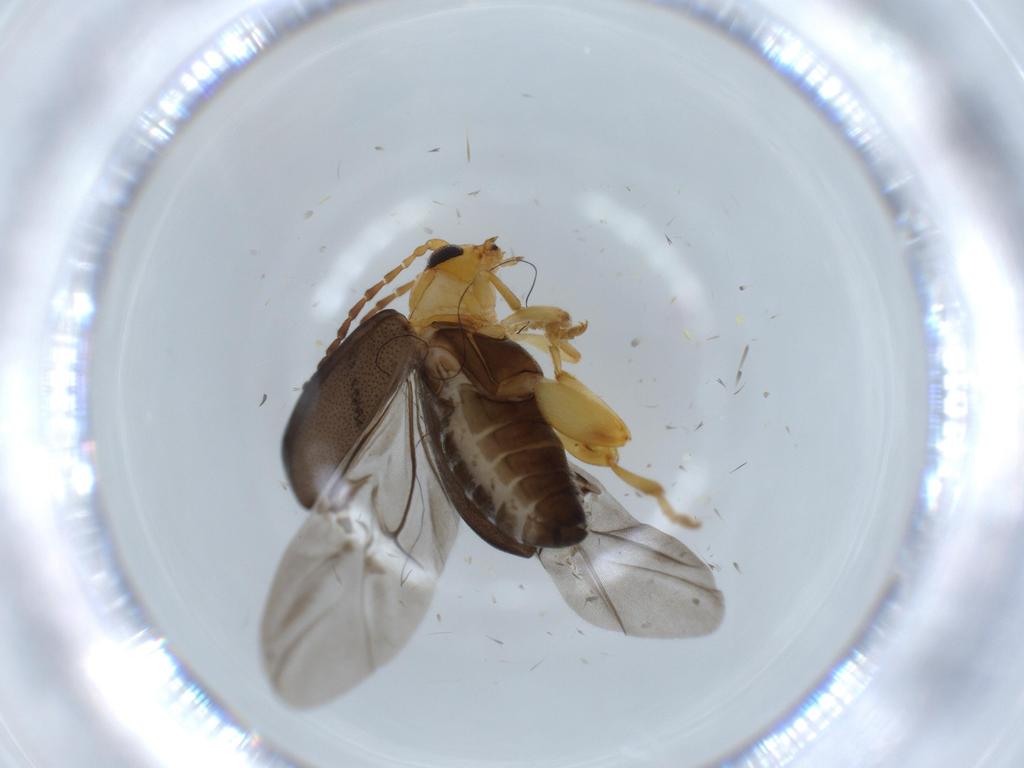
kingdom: Animalia
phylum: Arthropoda
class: Insecta
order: Coleoptera
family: Chrysomelidae
